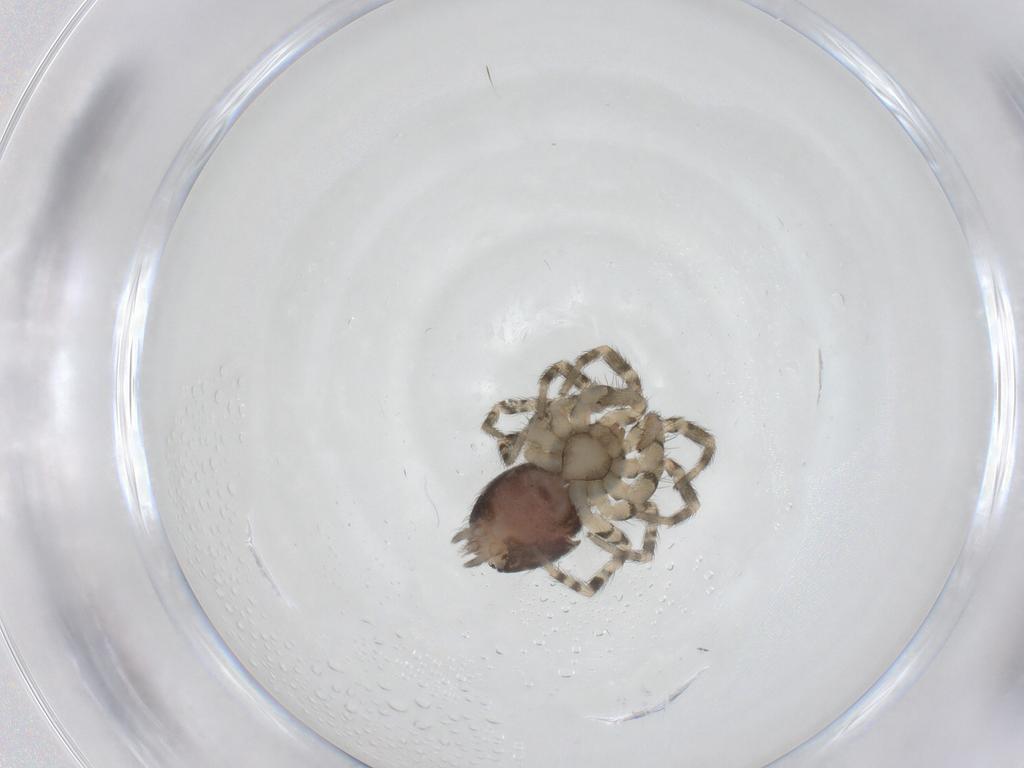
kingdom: Animalia
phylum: Arthropoda
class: Arachnida
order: Araneae
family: Oecobiidae
